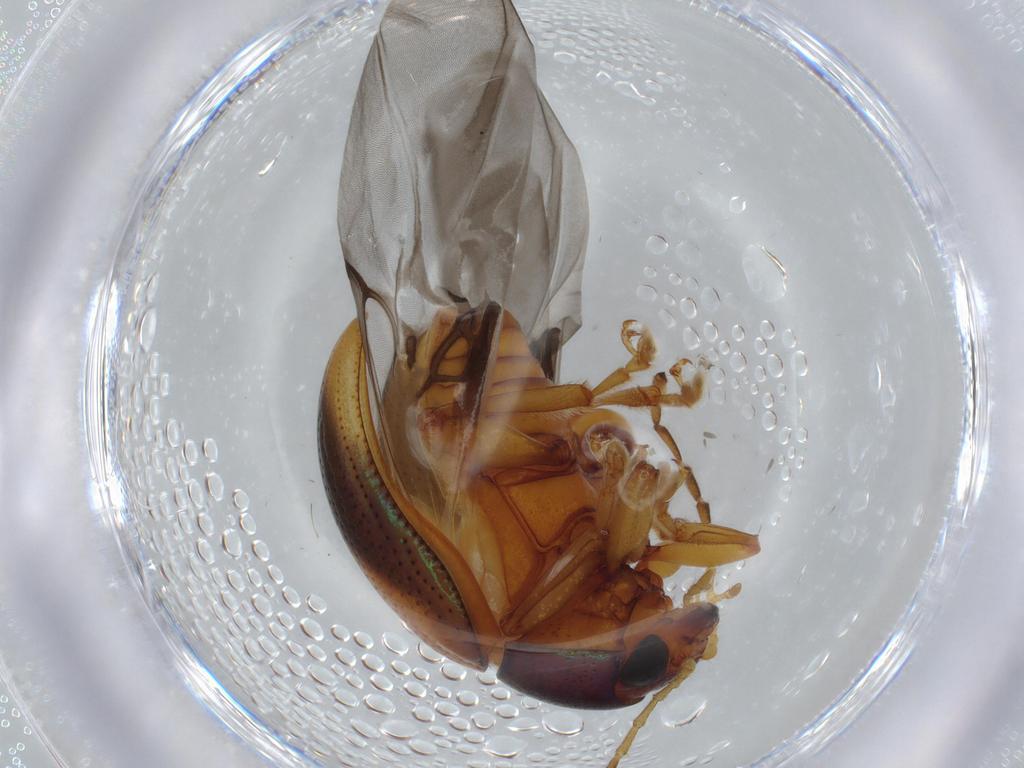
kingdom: Animalia
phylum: Arthropoda
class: Insecta
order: Coleoptera
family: Chrysomelidae
